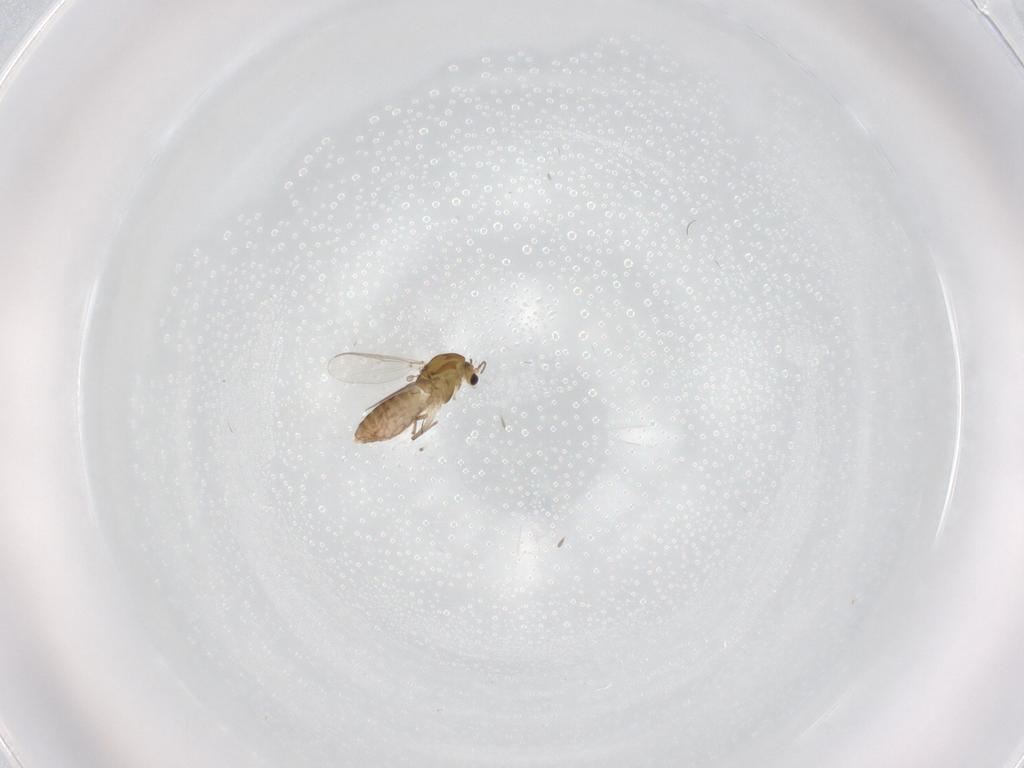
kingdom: Animalia
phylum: Arthropoda
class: Insecta
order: Diptera
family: Chironomidae
